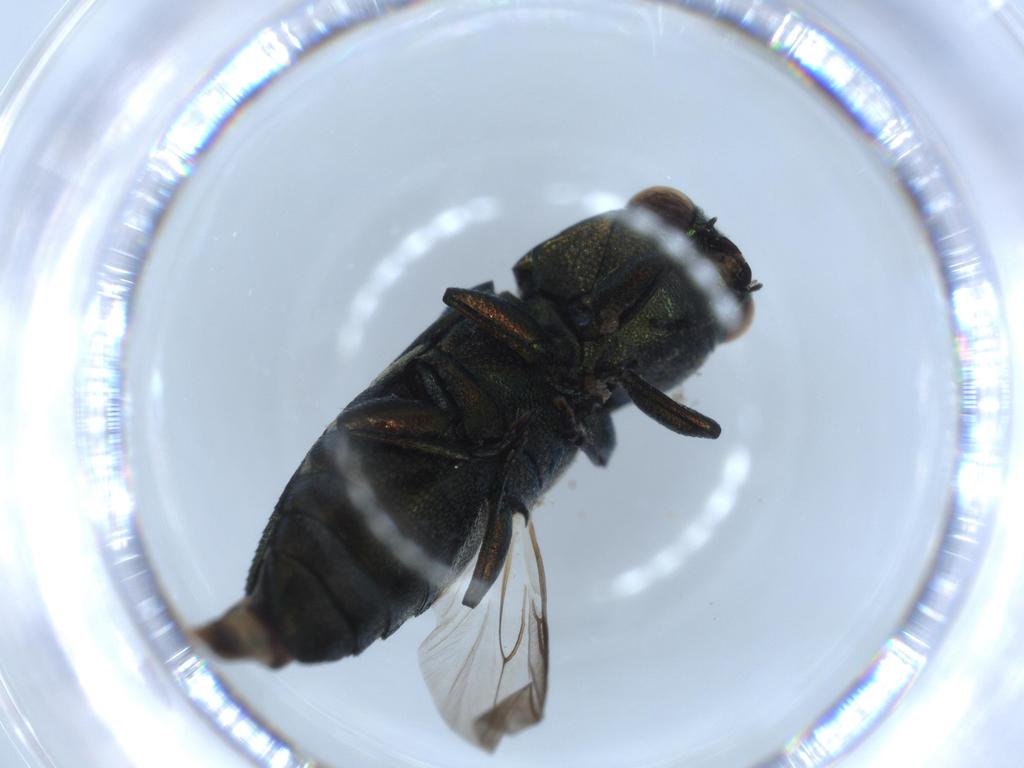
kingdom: Animalia
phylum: Arthropoda
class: Insecta
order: Coleoptera
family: Buprestidae
